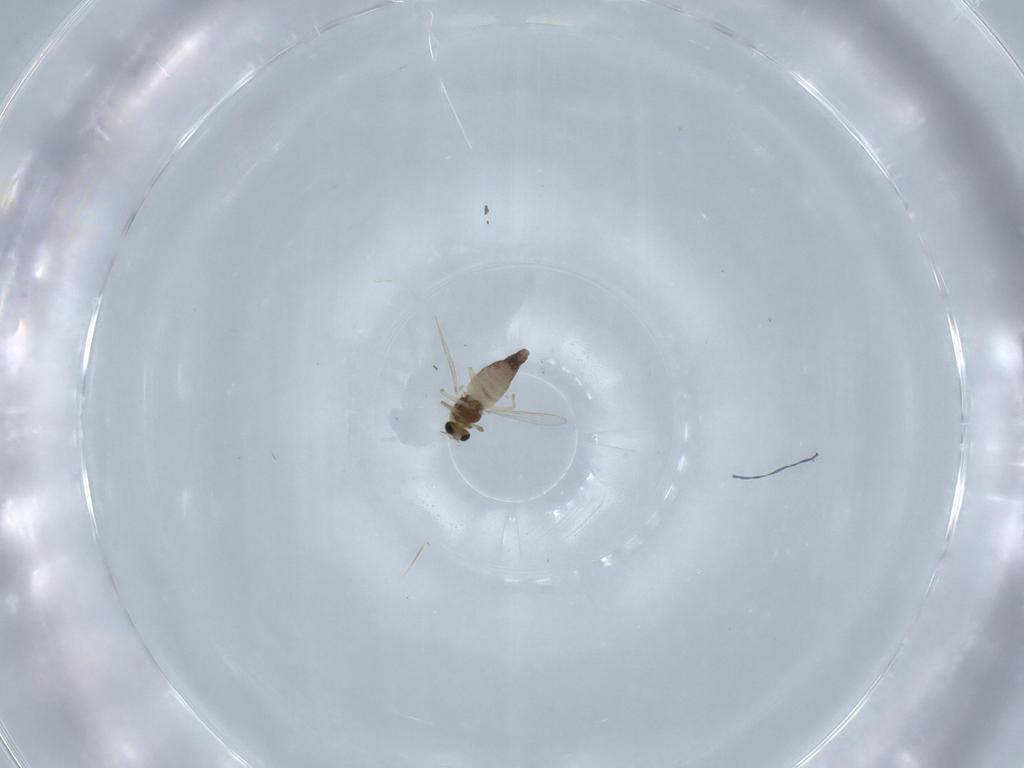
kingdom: Animalia
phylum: Arthropoda
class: Insecta
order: Diptera
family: Chironomidae
